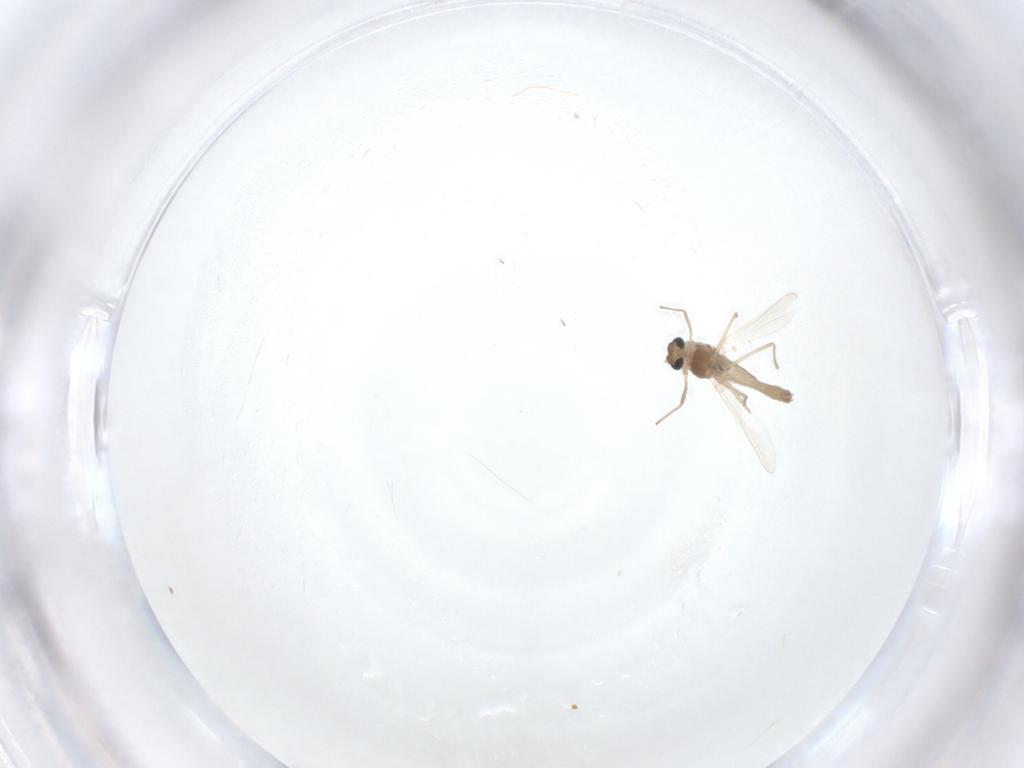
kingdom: Animalia
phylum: Arthropoda
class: Insecta
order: Diptera
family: Chironomidae
